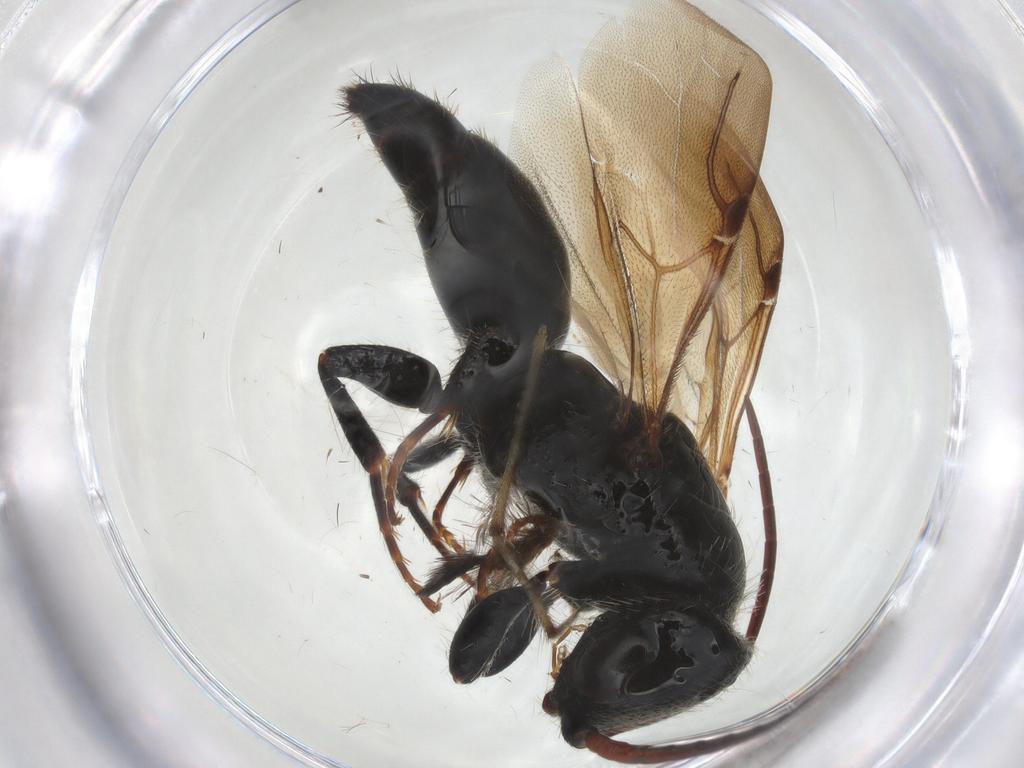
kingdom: Animalia
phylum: Arthropoda
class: Insecta
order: Hymenoptera
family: Bethylidae
